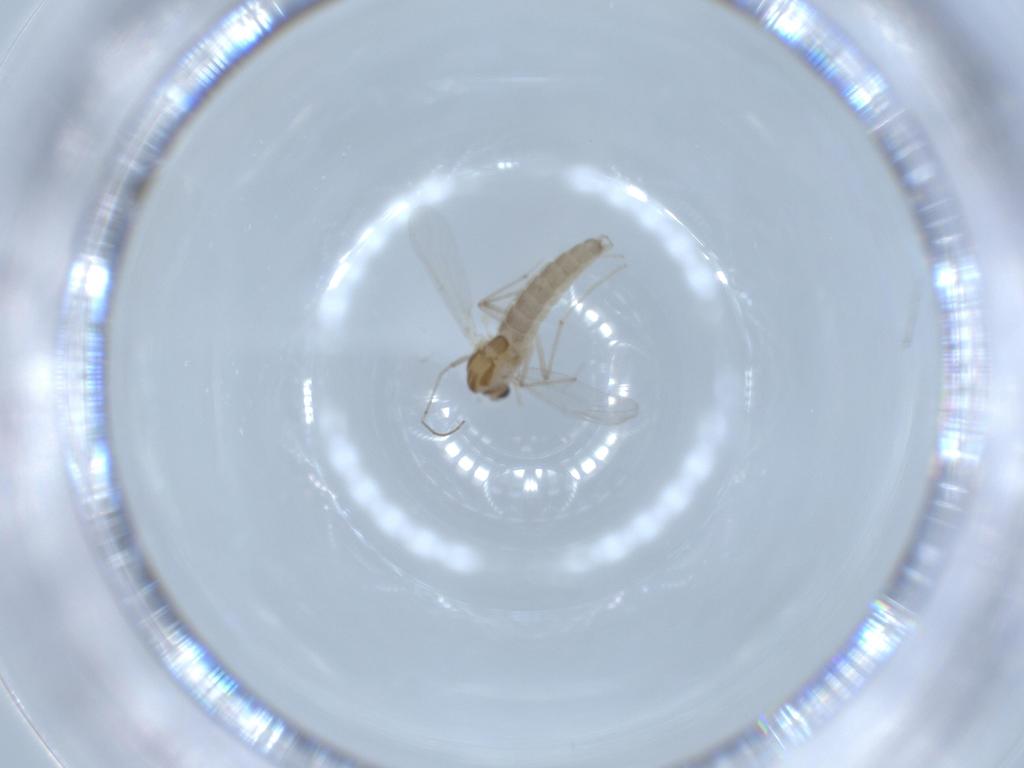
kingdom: Animalia
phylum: Arthropoda
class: Insecta
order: Diptera
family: Chironomidae
